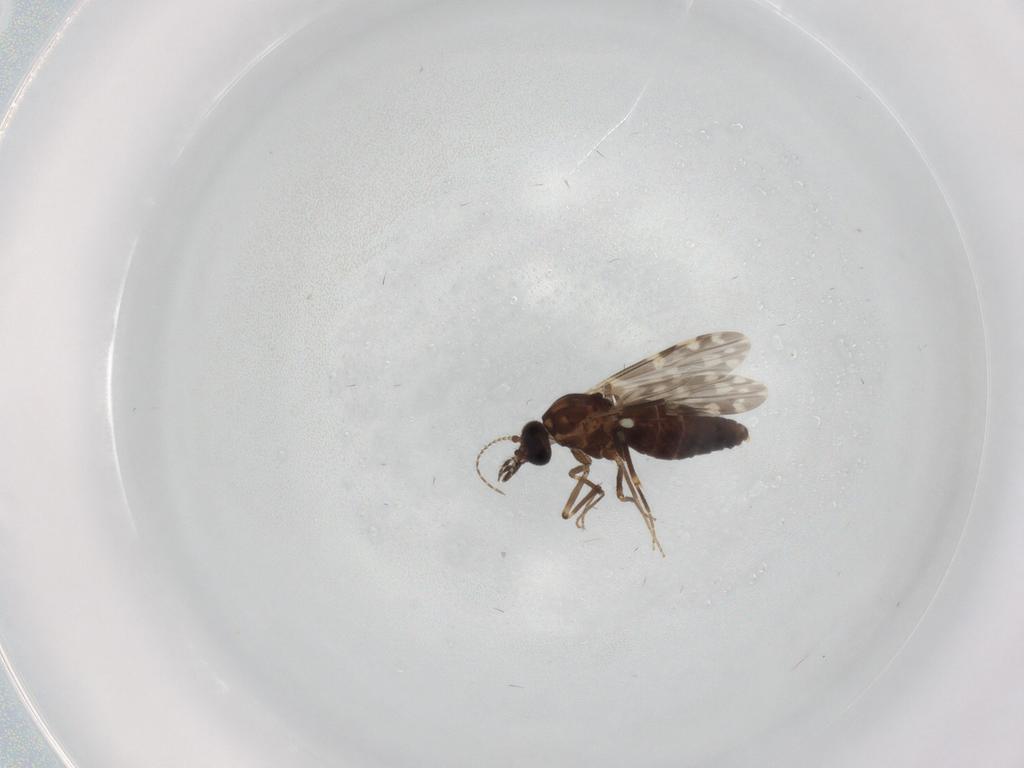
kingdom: Animalia
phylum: Arthropoda
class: Insecta
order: Diptera
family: Ceratopogonidae
